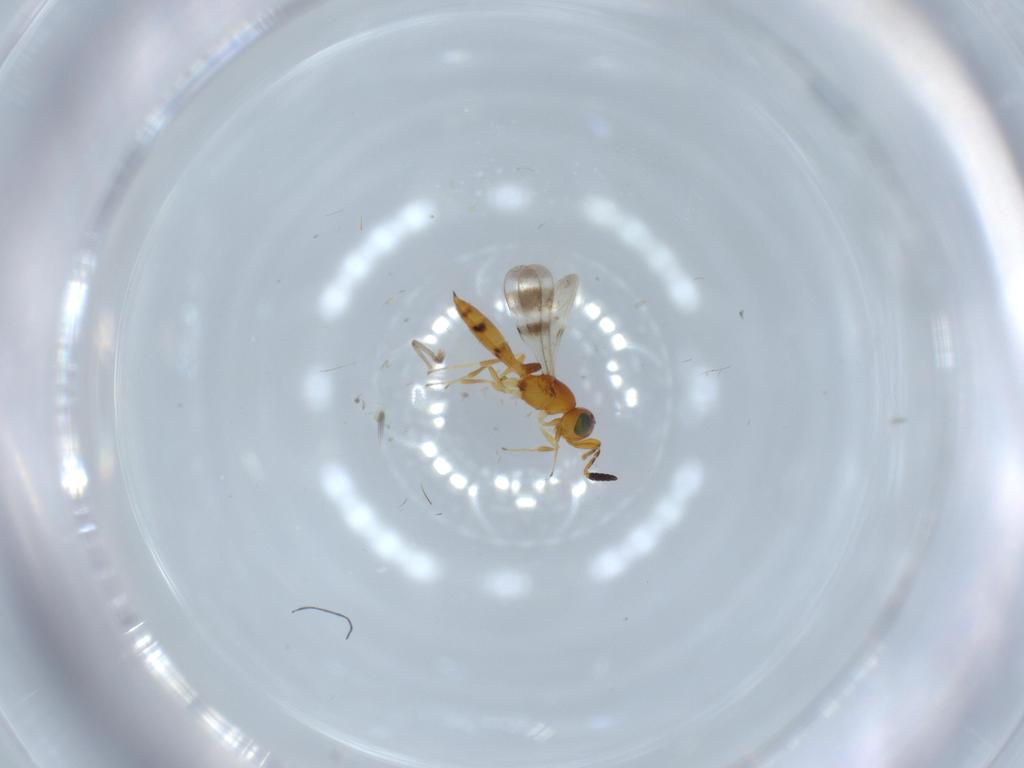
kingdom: Animalia
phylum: Arthropoda
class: Insecta
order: Hymenoptera
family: Scelionidae
